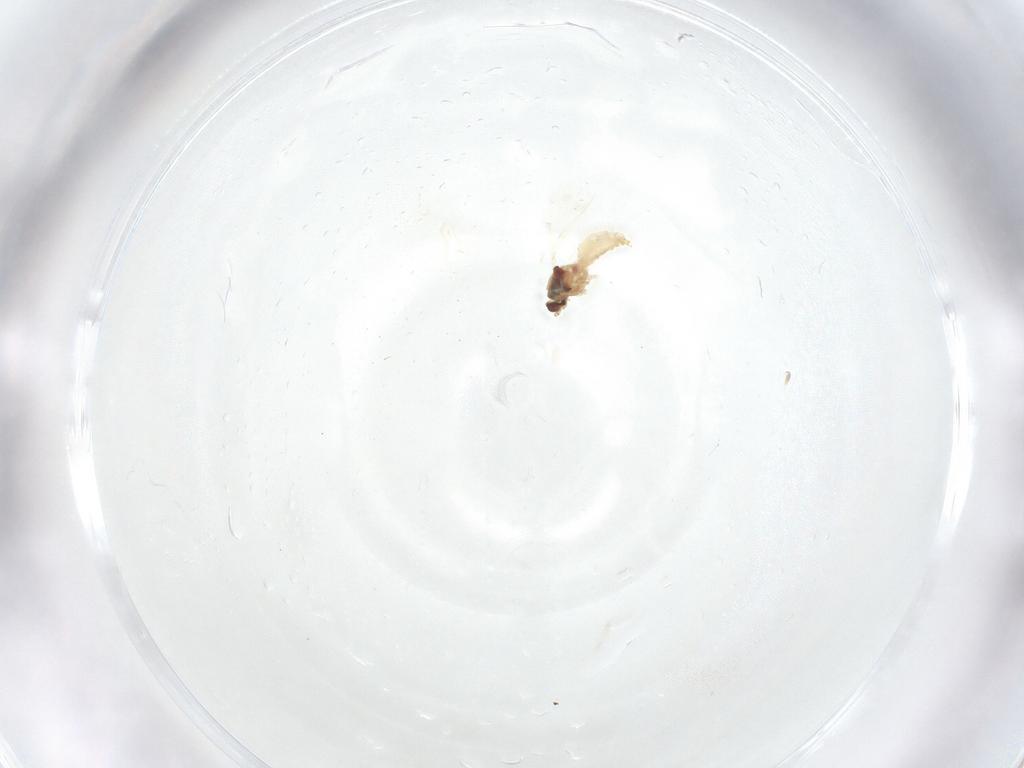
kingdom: Animalia
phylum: Arthropoda
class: Insecta
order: Diptera
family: Cecidomyiidae
